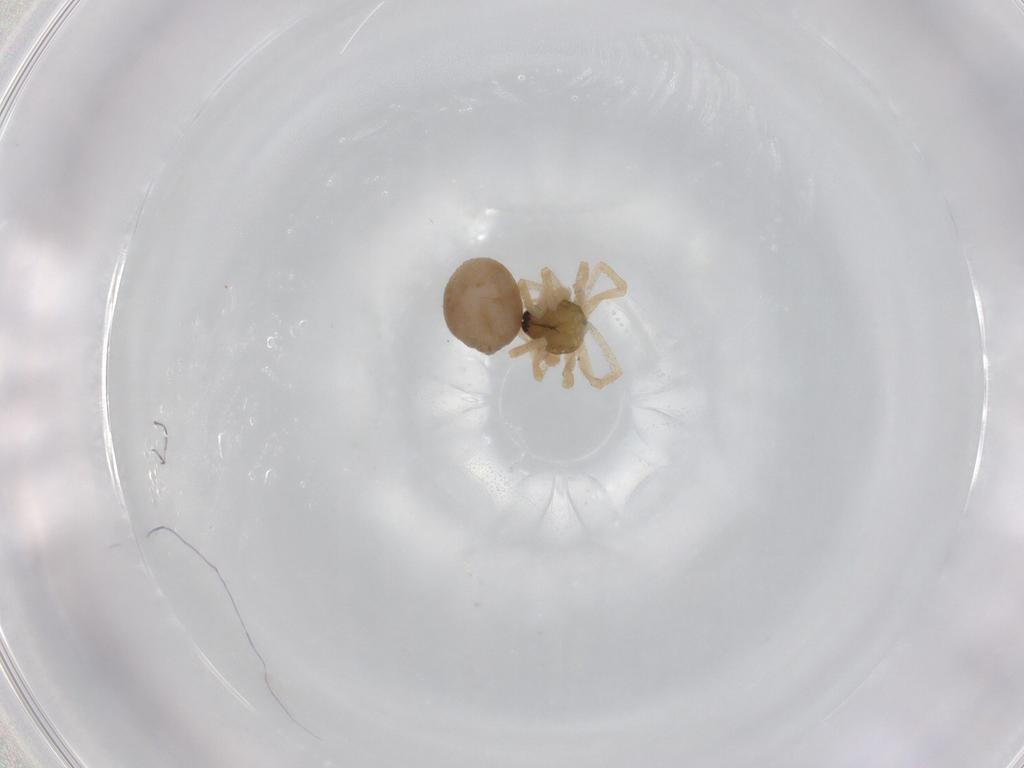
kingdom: Animalia
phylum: Arthropoda
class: Arachnida
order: Araneae
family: Linyphiidae
